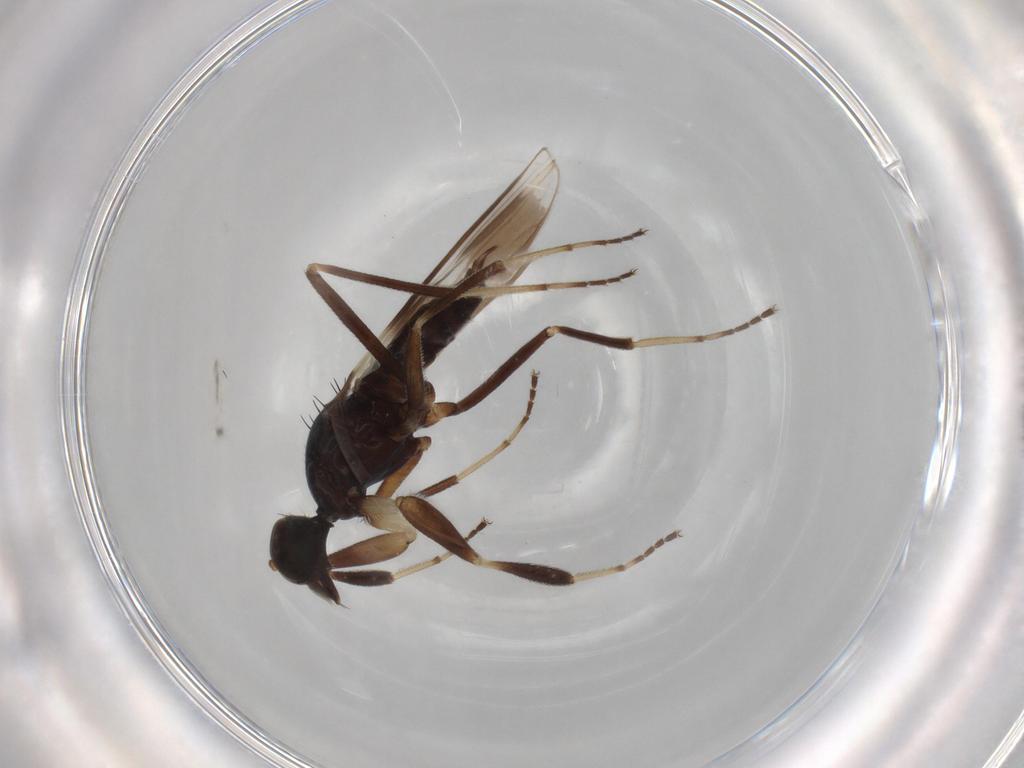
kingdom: Animalia
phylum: Arthropoda
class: Insecta
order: Diptera
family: Hybotidae
